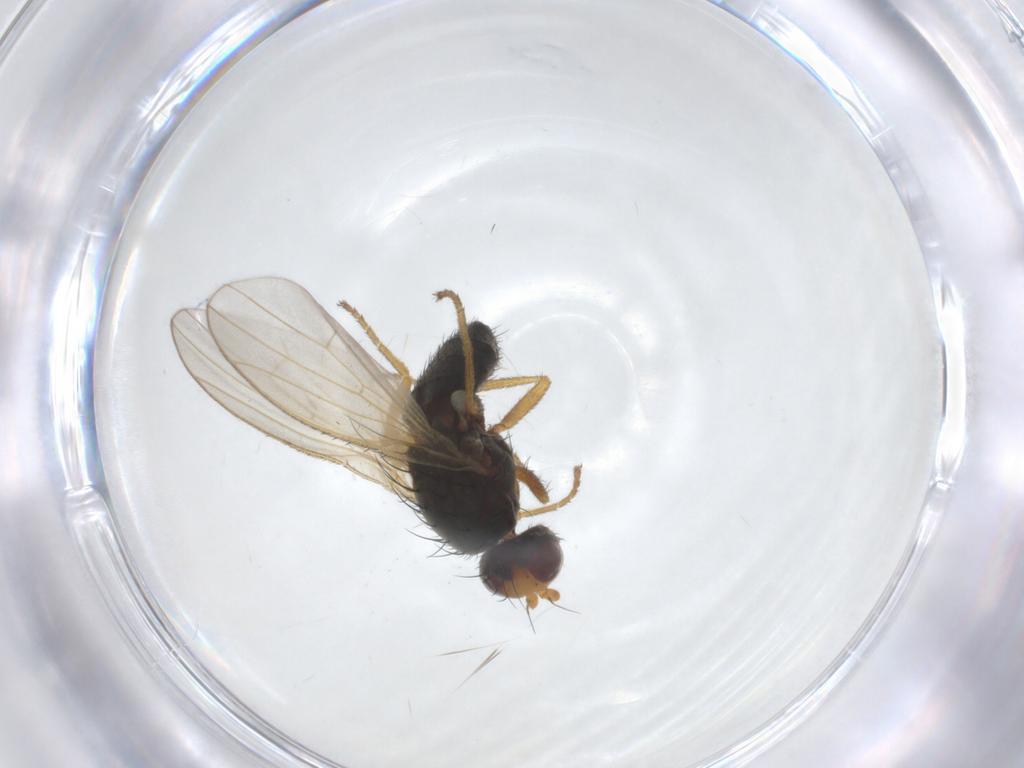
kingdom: Animalia
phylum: Arthropoda
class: Insecta
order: Diptera
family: Heleomyzidae
